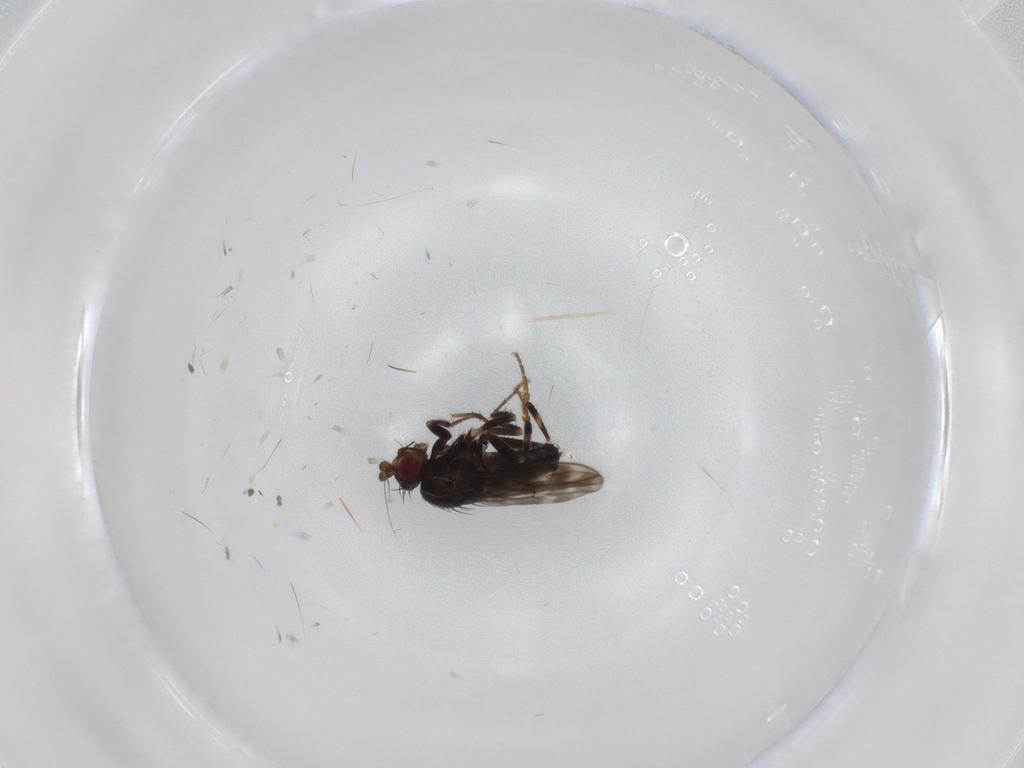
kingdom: Animalia
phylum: Arthropoda
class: Insecta
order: Diptera
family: Sphaeroceridae
